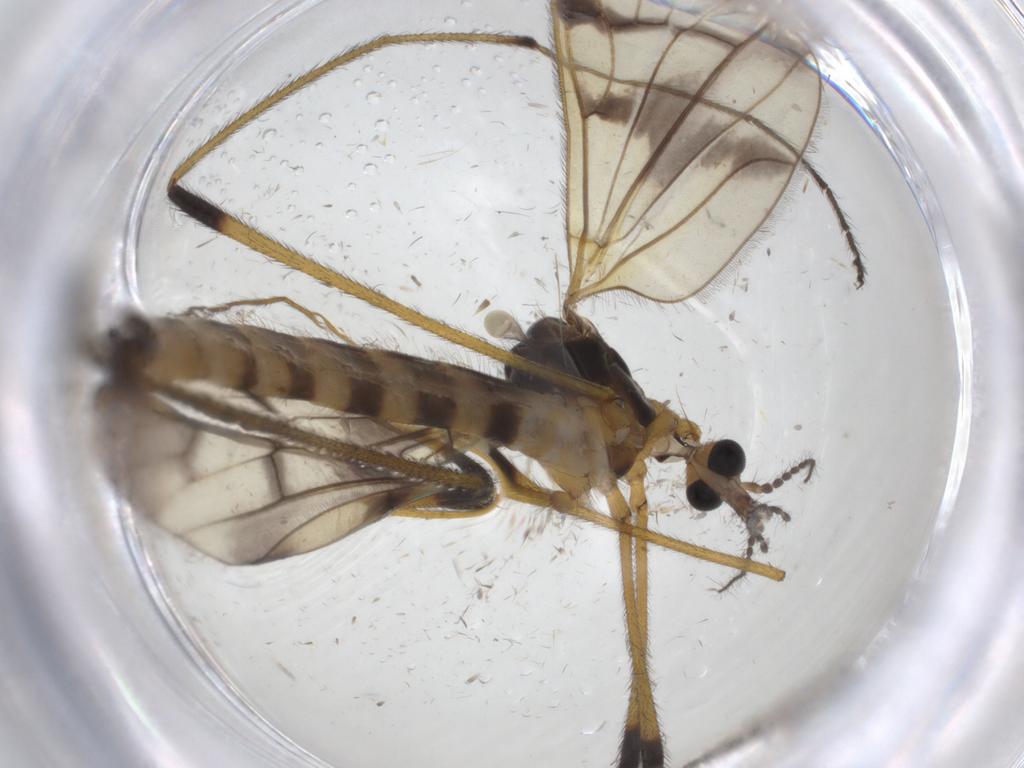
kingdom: Animalia
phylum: Arthropoda
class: Insecta
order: Diptera
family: Limoniidae
